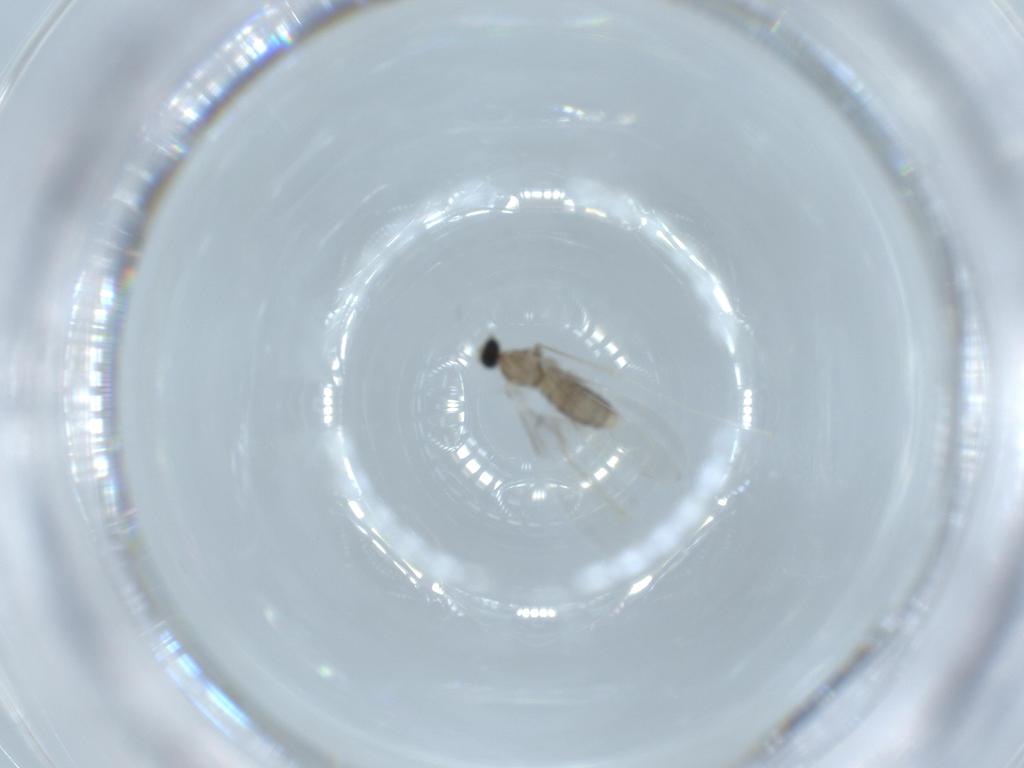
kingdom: Animalia
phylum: Arthropoda
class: Insecta
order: Diptera
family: Cecidomyiidae
